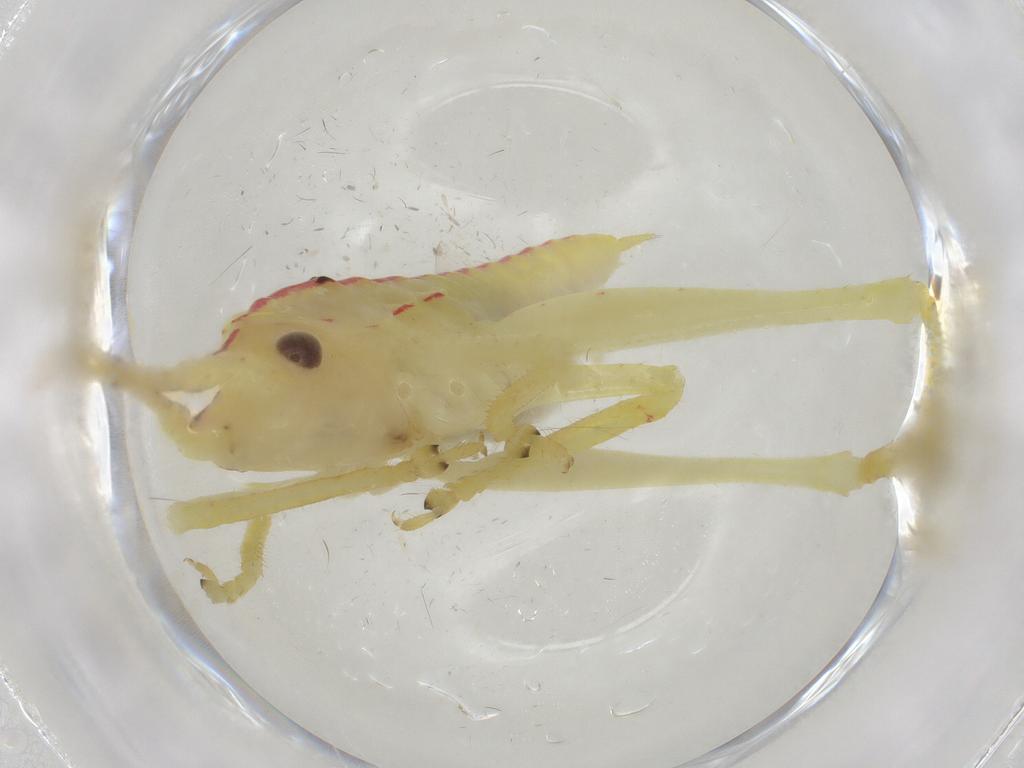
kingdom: Animalia
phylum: Arthropoda
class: Insecta
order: Orthoptera
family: Tettigoniidae
